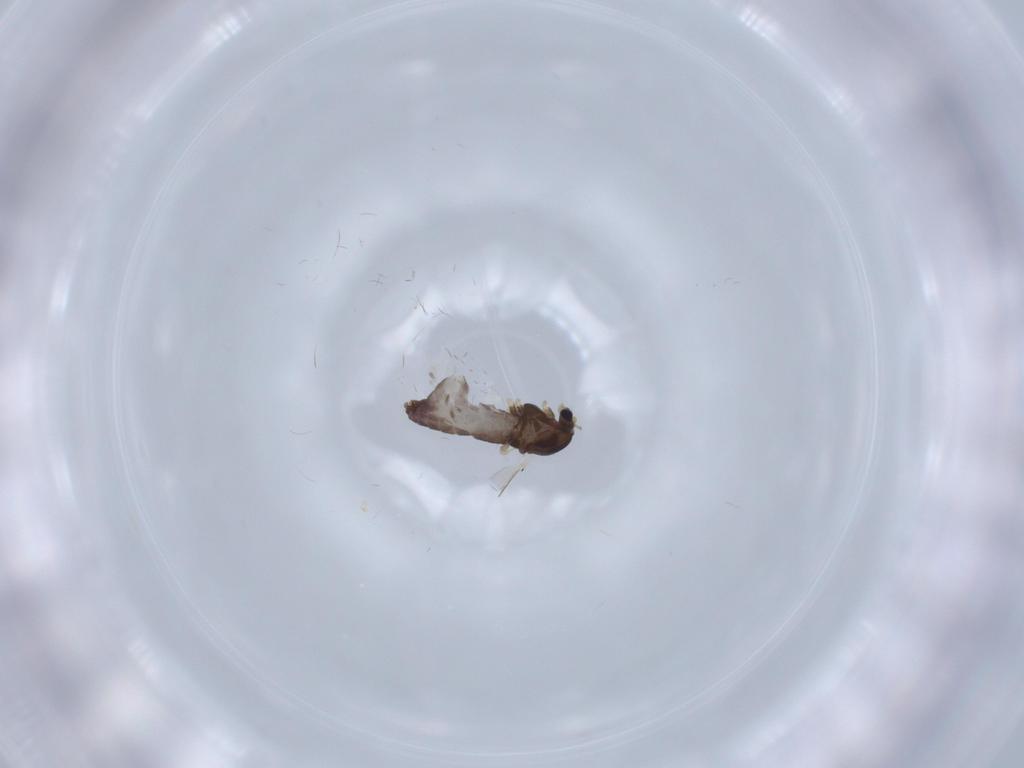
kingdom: Animalia
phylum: Arthropoda
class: Insecta
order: Diptera
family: Chironomidae
